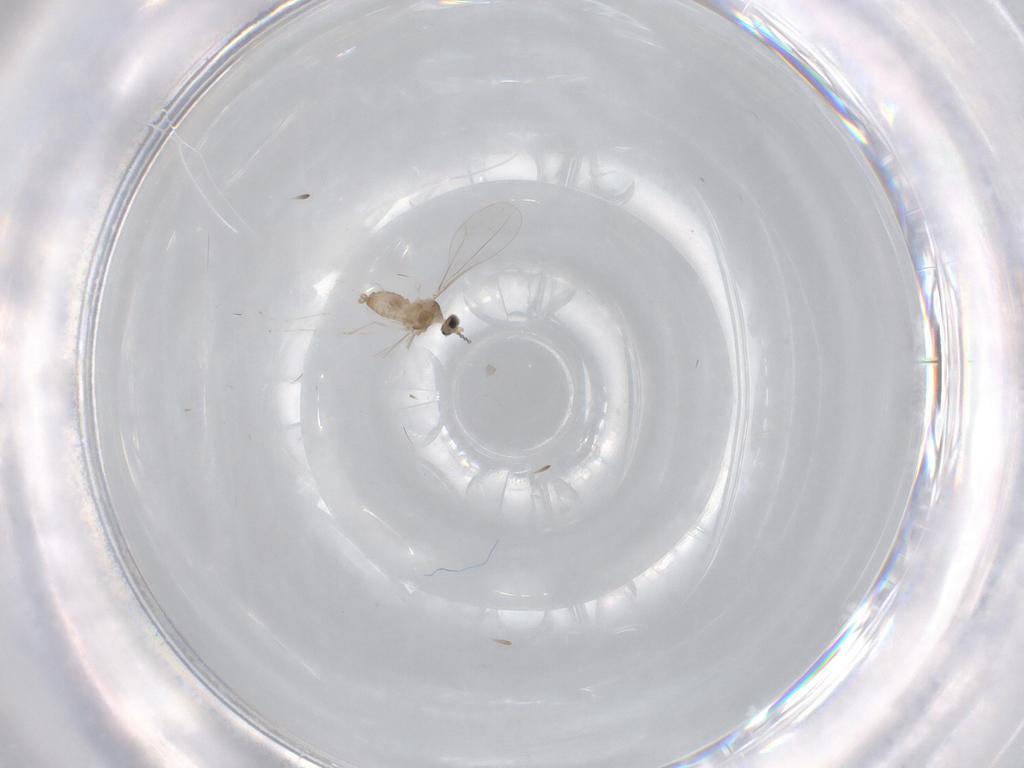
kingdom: Animalia
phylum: Arthropoda
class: Insecta
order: Diptera
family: Cecidomyiidae
